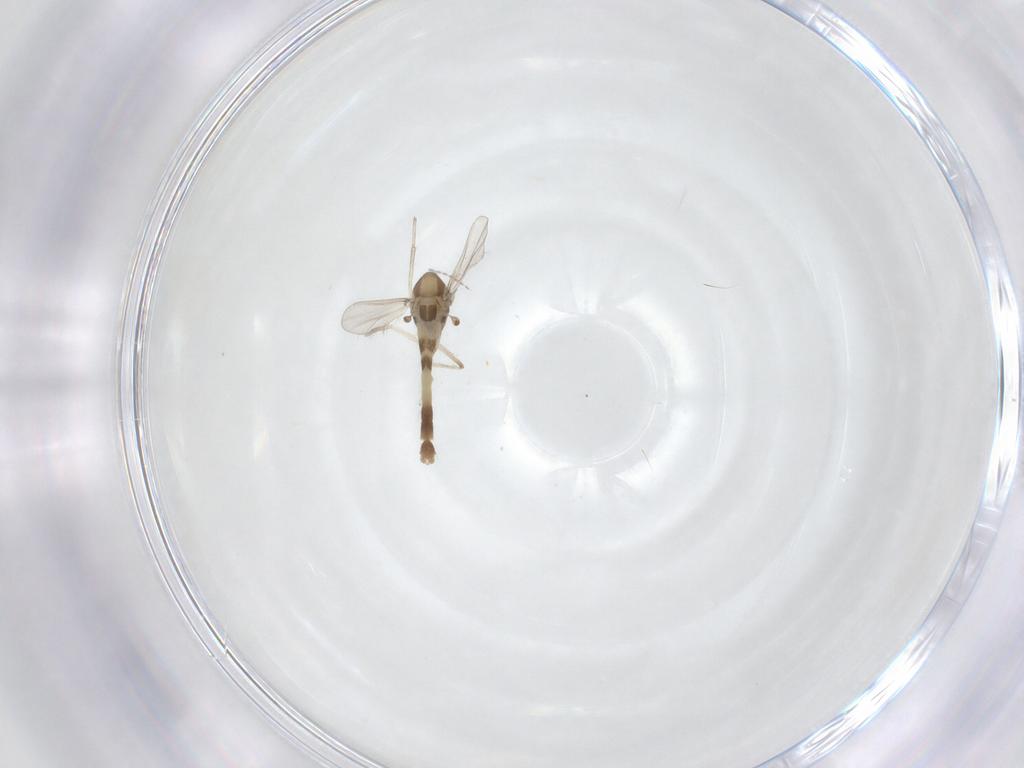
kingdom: Animalia
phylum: Arthropoda
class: Insecta
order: Diptera
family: Chironomidae
